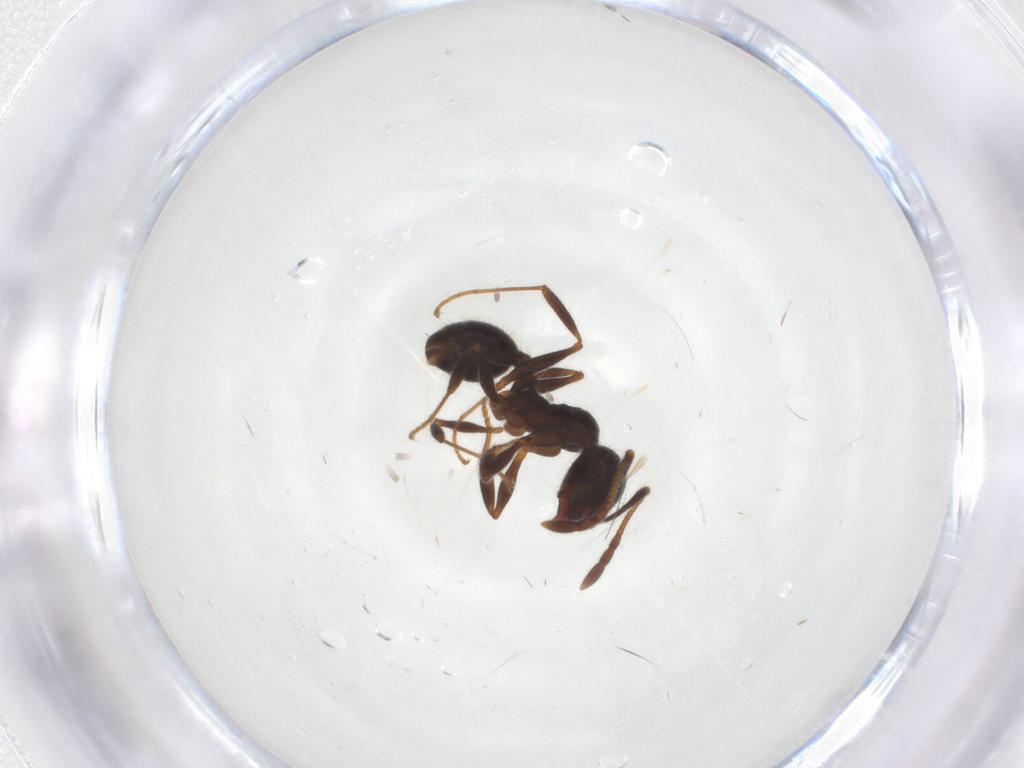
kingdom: Animalia
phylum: Arthropoda
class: Insecta
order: Hymenoptera
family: Formicidae
